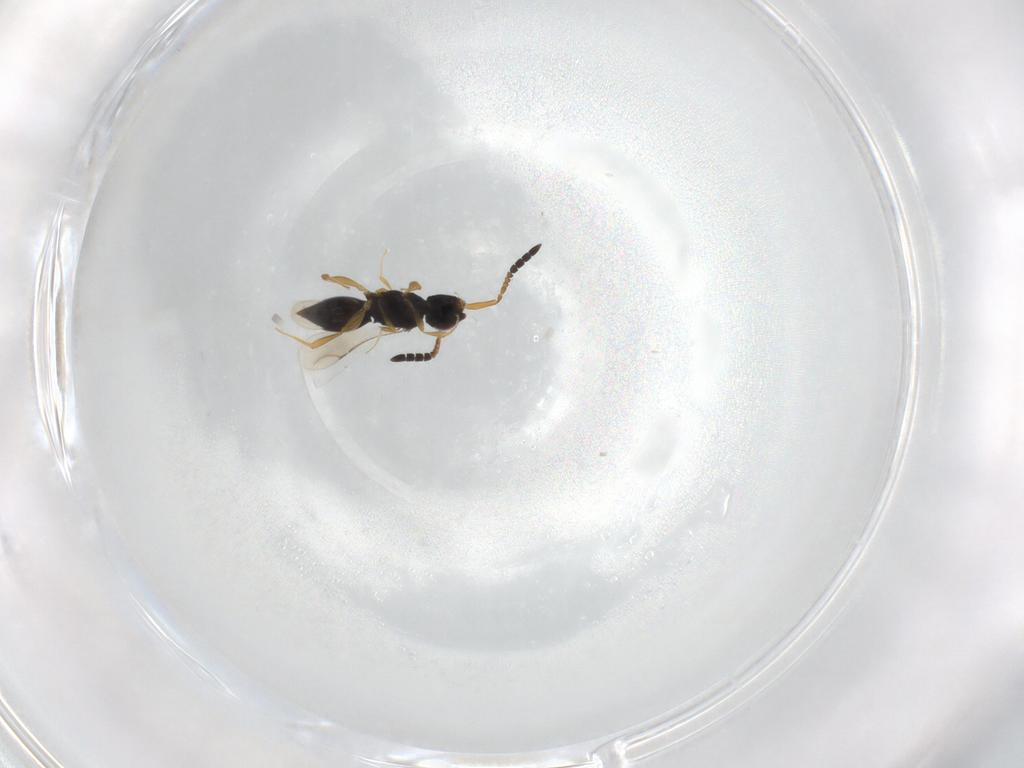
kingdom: Animalia
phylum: Arthropoda
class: Insecta
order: Hymenoptera
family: Ichneumonidae
